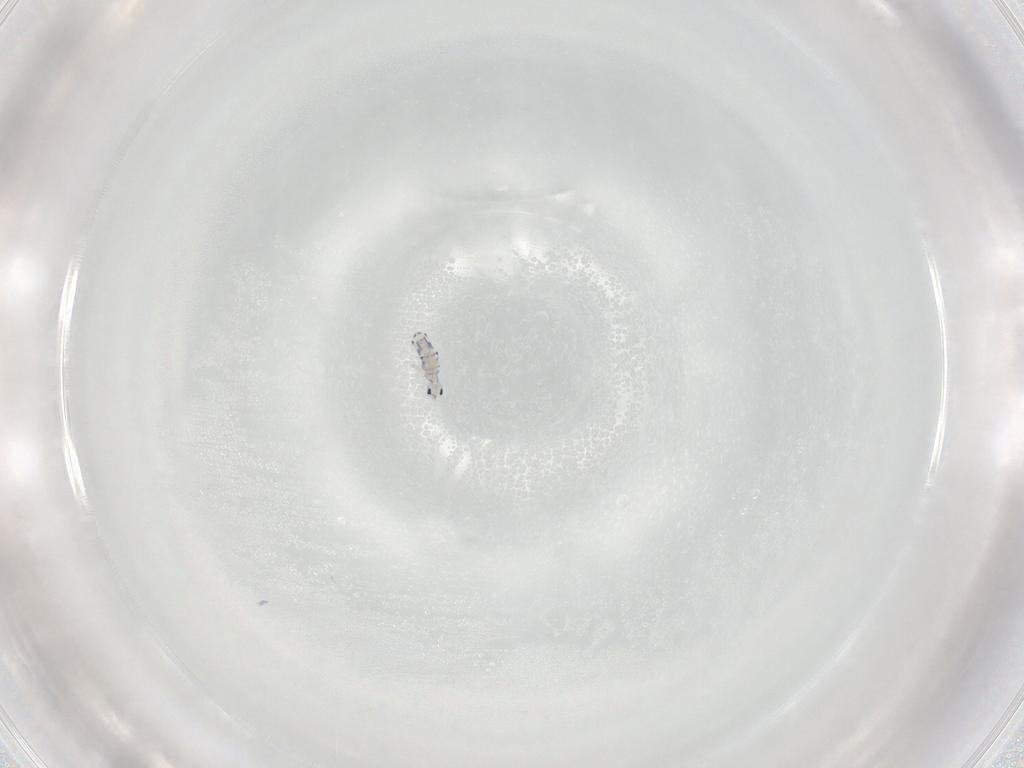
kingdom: Animalia
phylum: Arthropoda
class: Collembola
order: Entomobryomorpha
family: Entomobryidae
